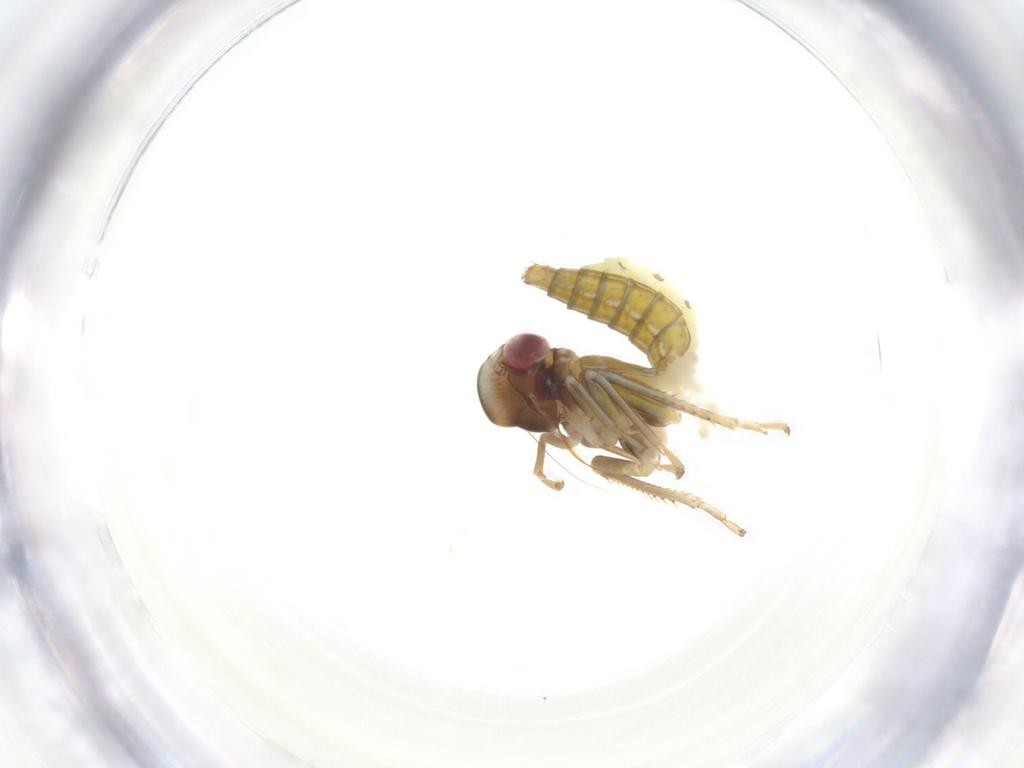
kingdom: Animalia
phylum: Arthropoda
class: Insecta
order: Hemiptera
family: Cicadellidae
